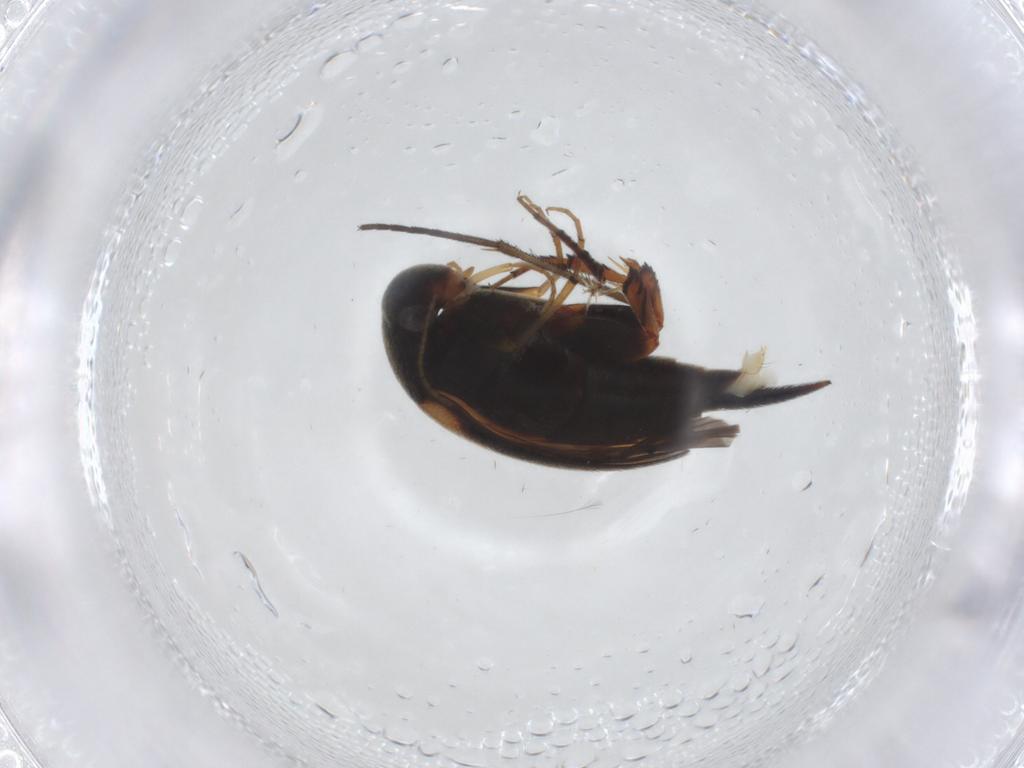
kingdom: Animalia
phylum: Arthropoda
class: Insecta
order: Coleoptera
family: Mordellidae
